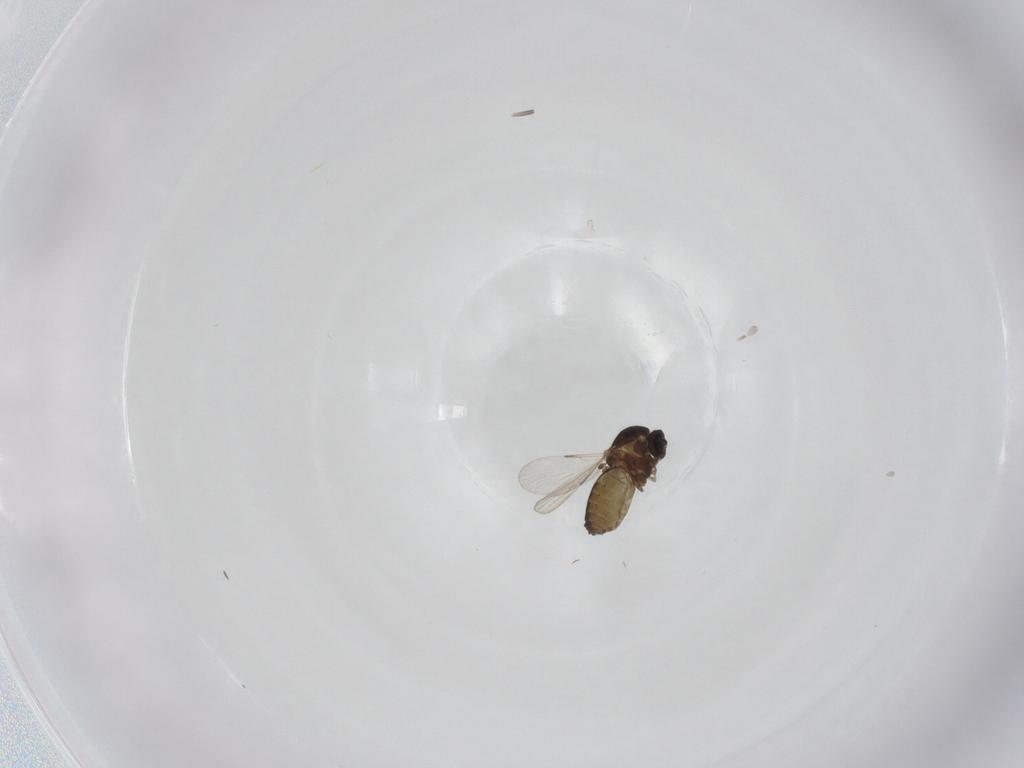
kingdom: Animalia
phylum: Arthropoda
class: Insecta
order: Diptera
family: Ceratopogonidae
